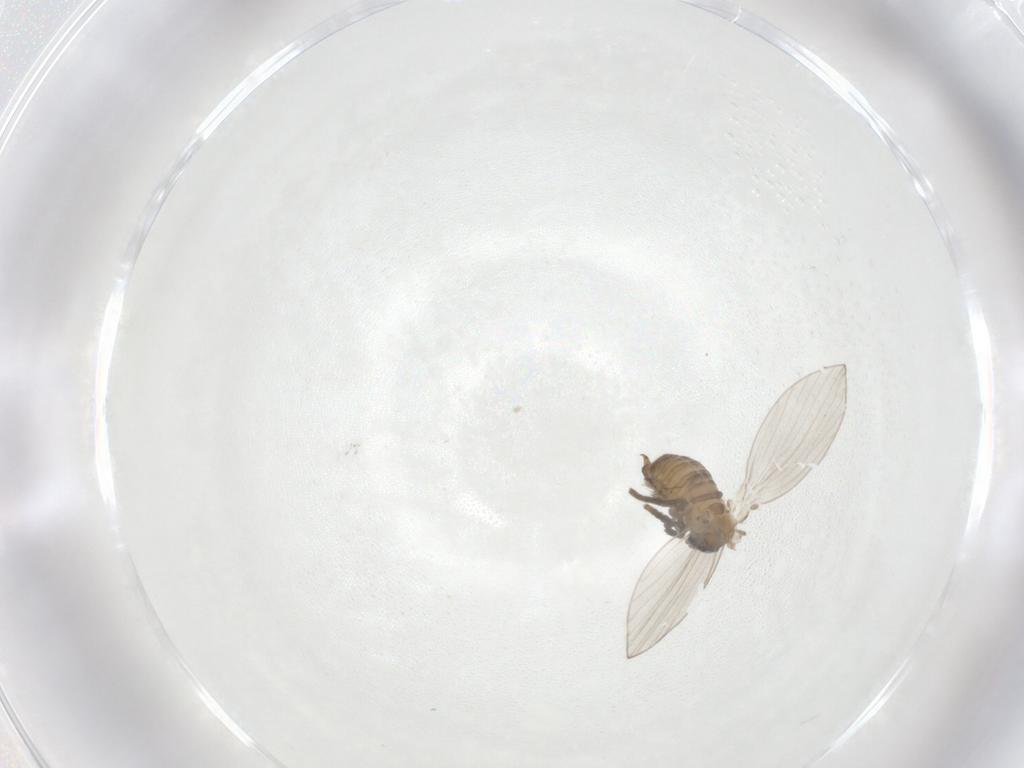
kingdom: Animalia
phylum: Arthropoda
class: Insecta
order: Diptera
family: Psychodidae
